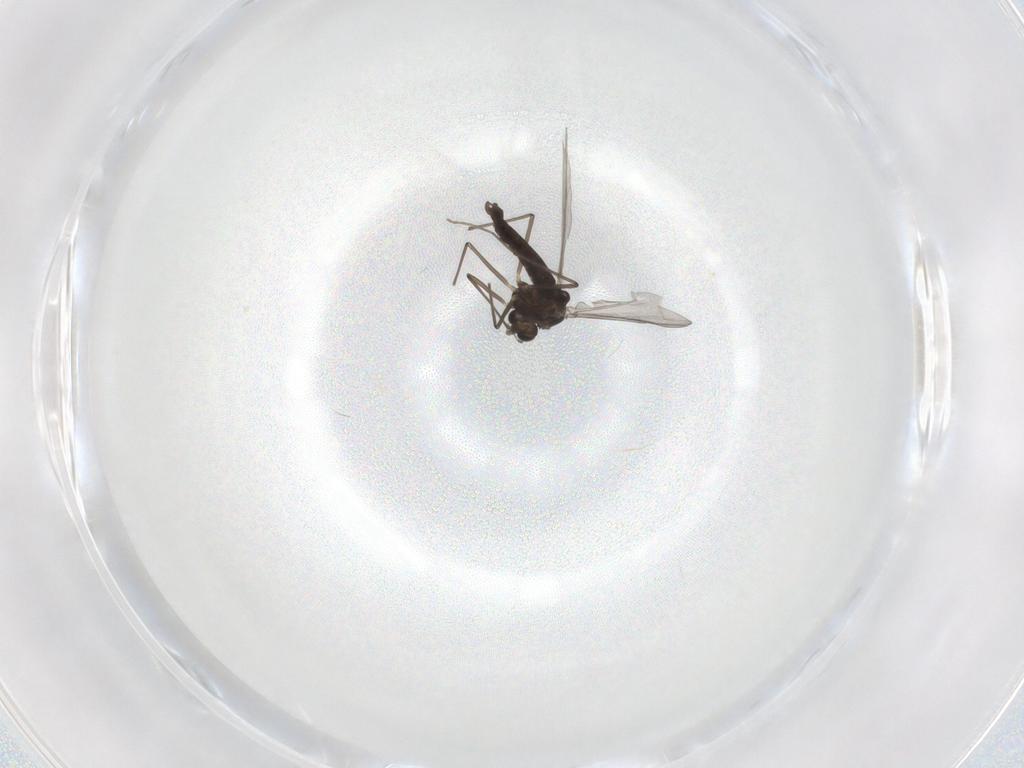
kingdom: Animalia
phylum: Arthropoda
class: Insecta
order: Diptera
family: Chironomidae
